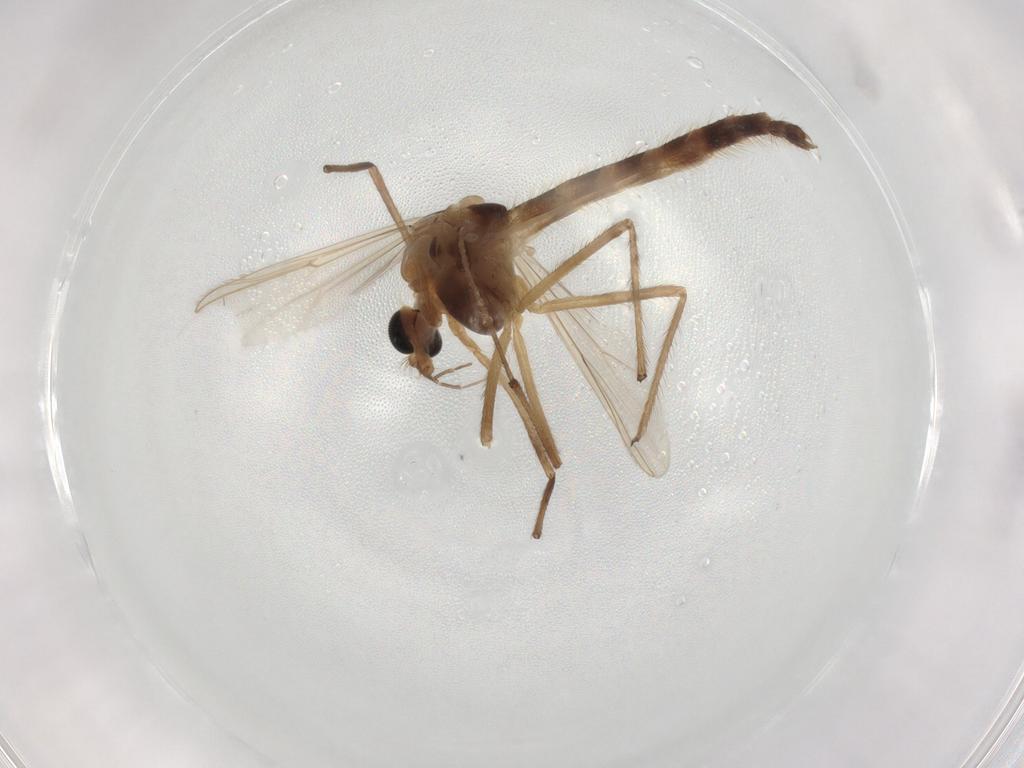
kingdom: Animalia
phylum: Arthropoda
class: Insecta
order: Diptera
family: Chironomidae
